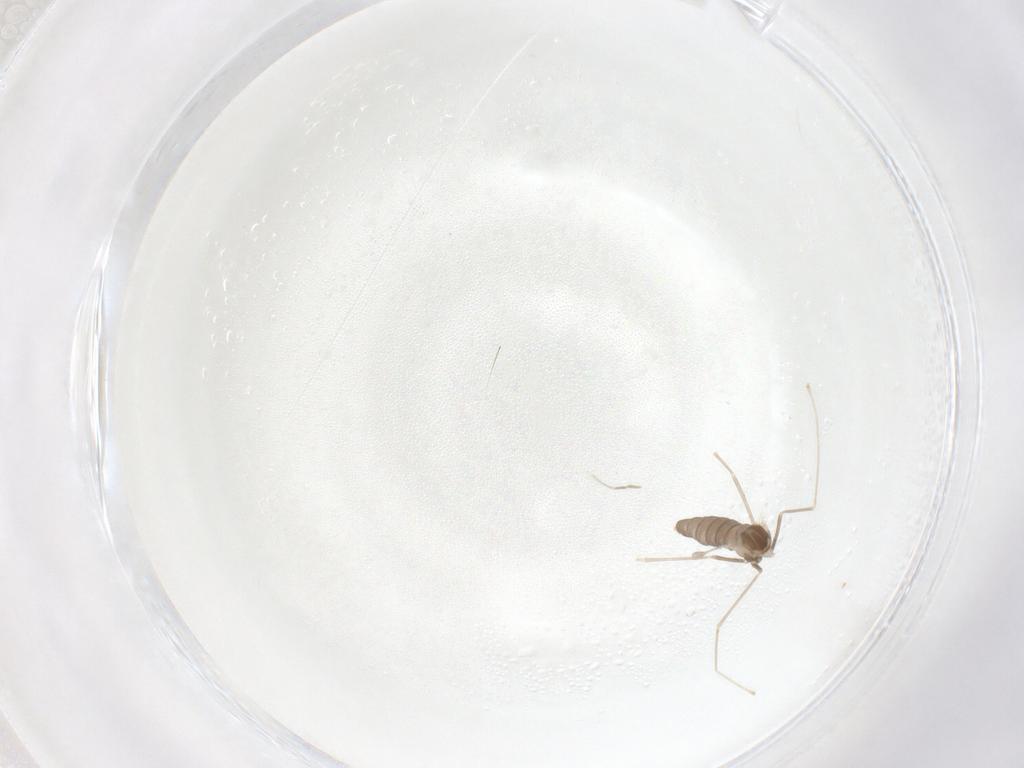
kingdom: Animalia
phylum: Arthropoda
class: Insecta
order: Diptera
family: Cecidomyiidae
